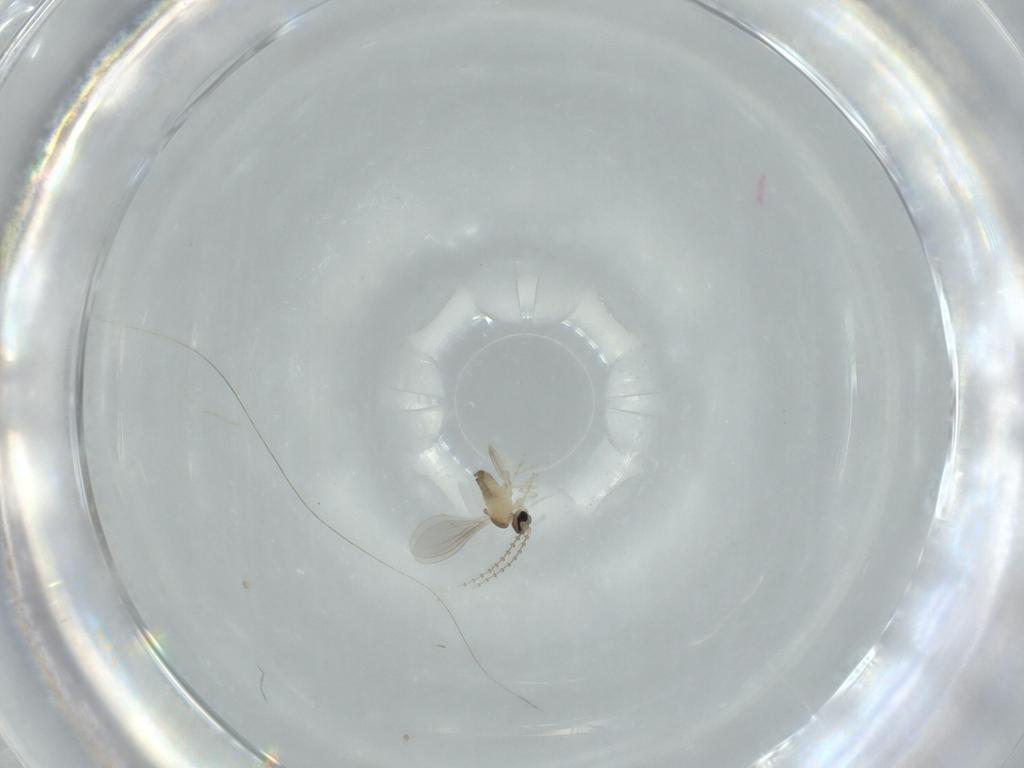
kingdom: Animalia
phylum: Arthropoda
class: Insecta
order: Diptera
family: Cecidomyiidae
